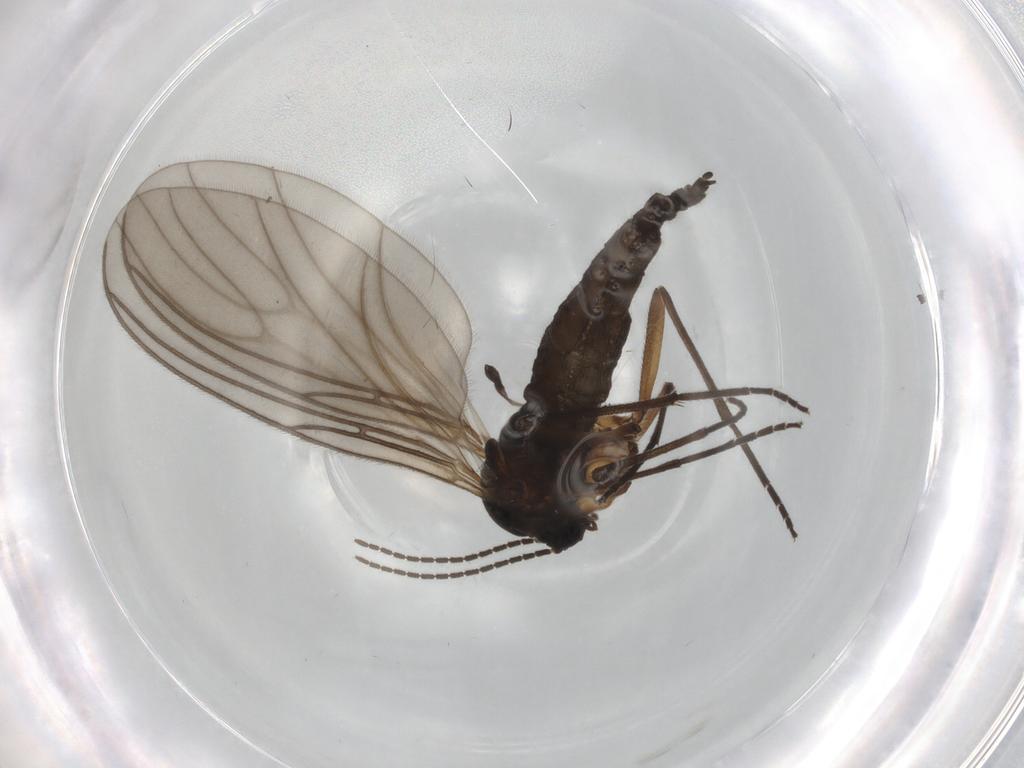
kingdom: Animalia
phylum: Arthropoda
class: Insecta
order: Diptera
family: Sciaridae
